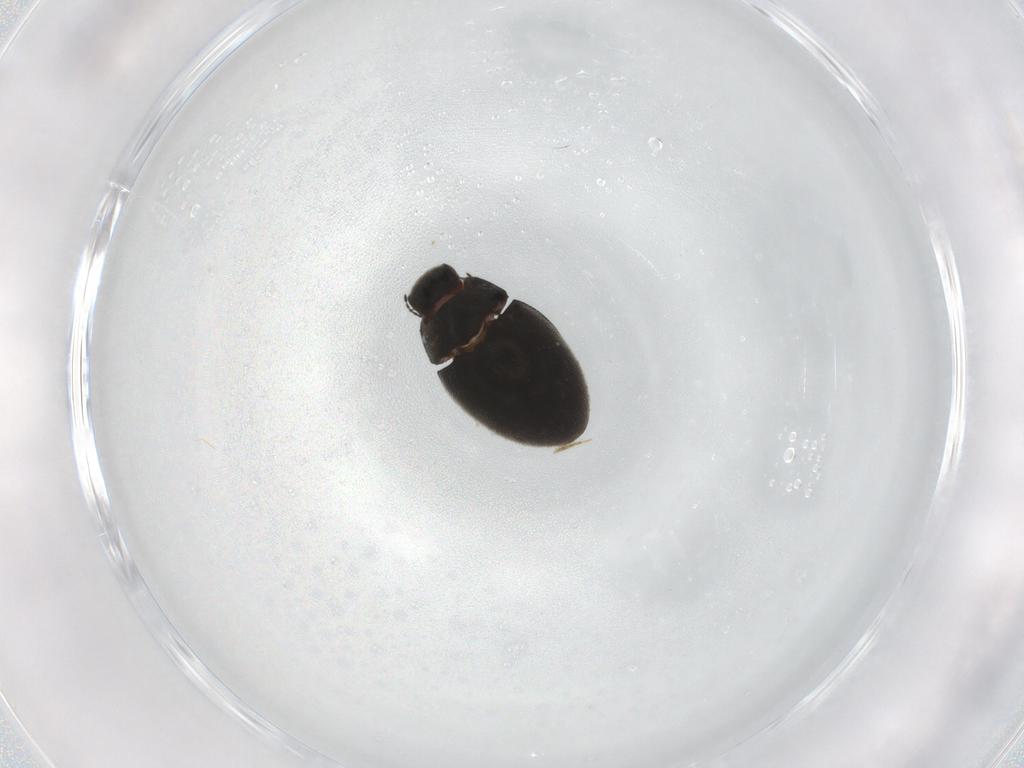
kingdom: Animalia
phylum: Arthropoda
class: Insecta
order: Coleoptera
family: Limnichidae
